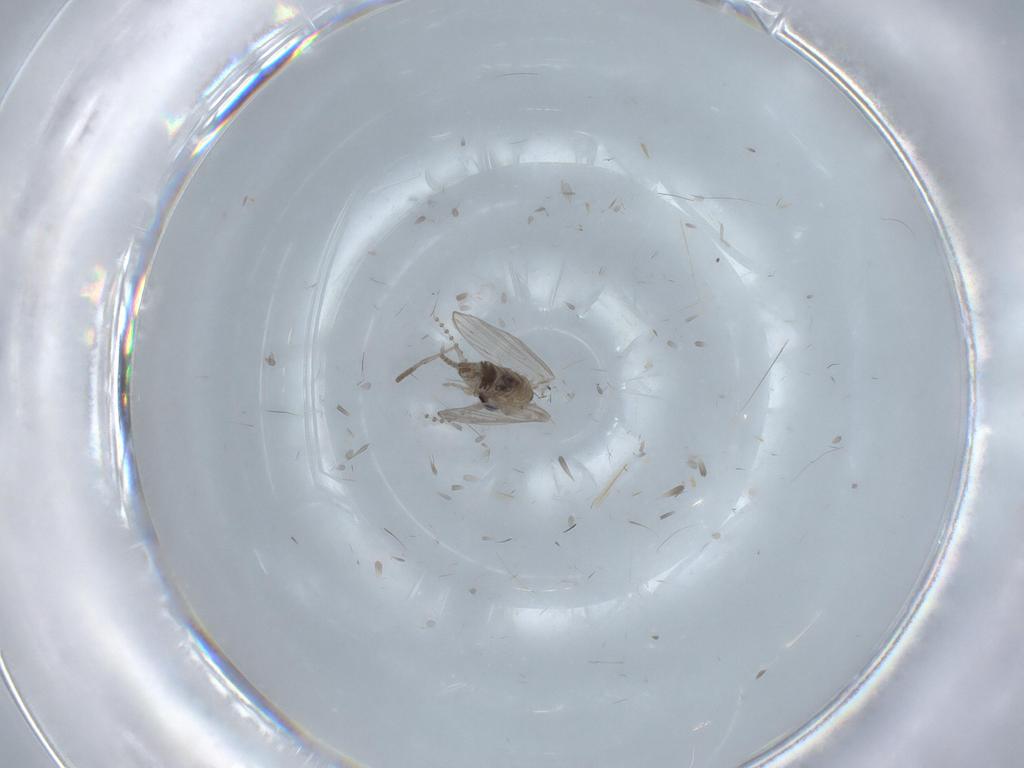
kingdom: Animalia
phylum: Arthropoda
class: Insecta
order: Diptera
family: Psychodidae
